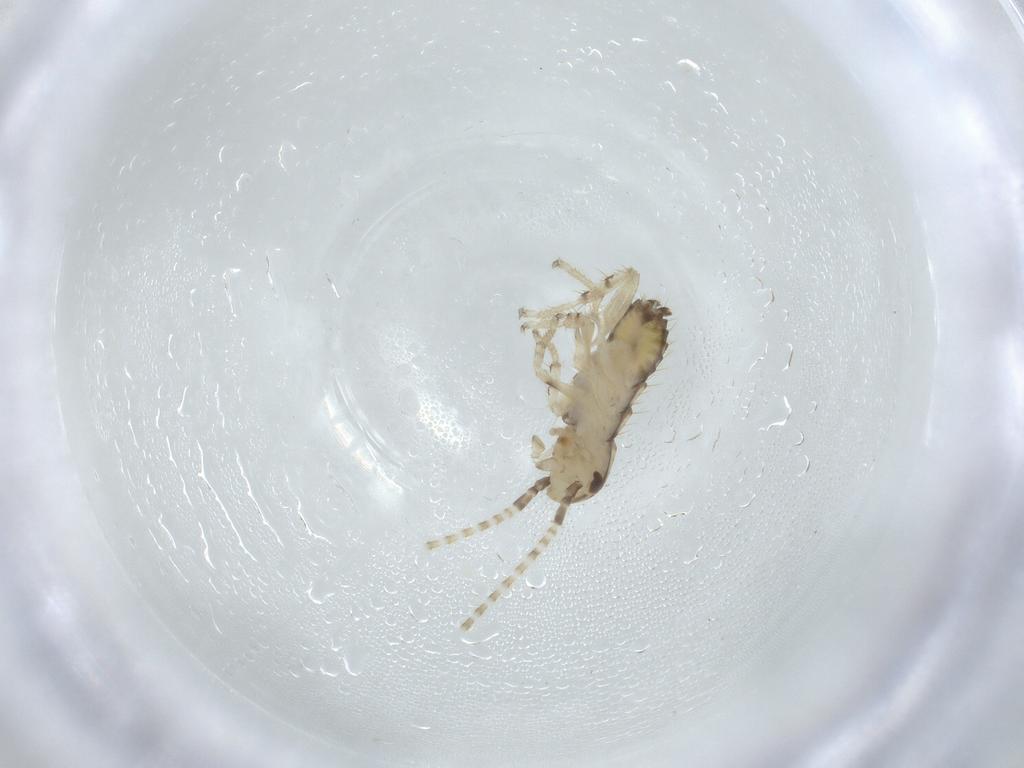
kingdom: Animalia
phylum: Arthropoda
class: Insecta
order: Blattodea
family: Ectobiidae
